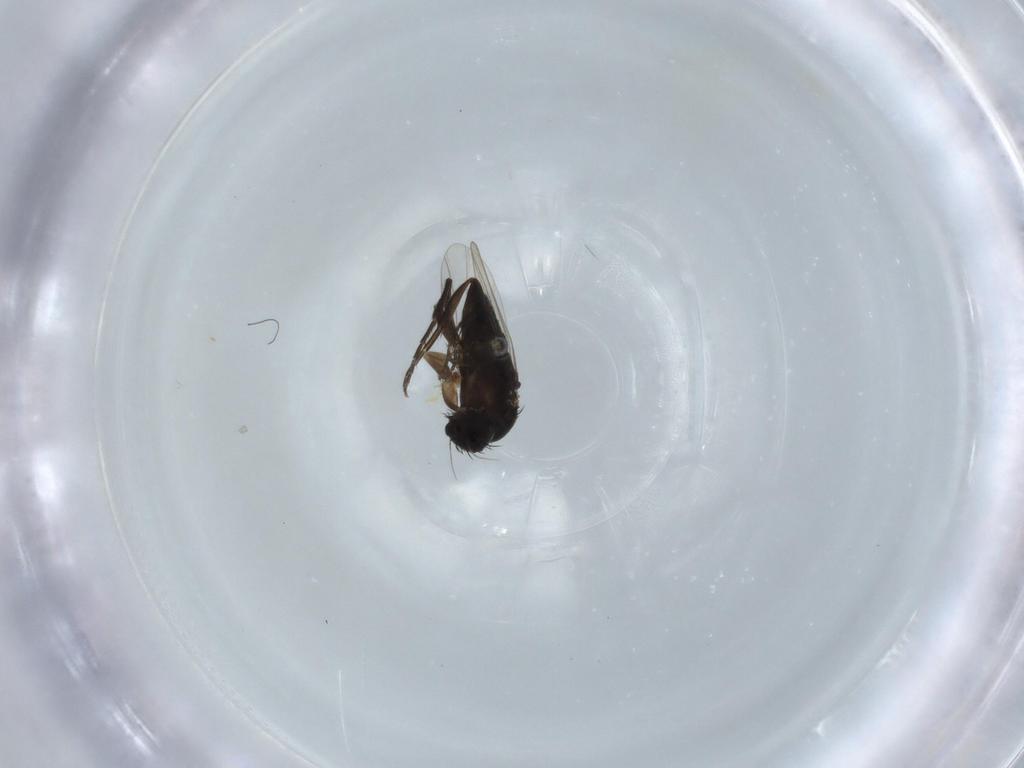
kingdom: Animalia
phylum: Arthropoda
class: Insecta
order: Diptera
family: Phoridae
